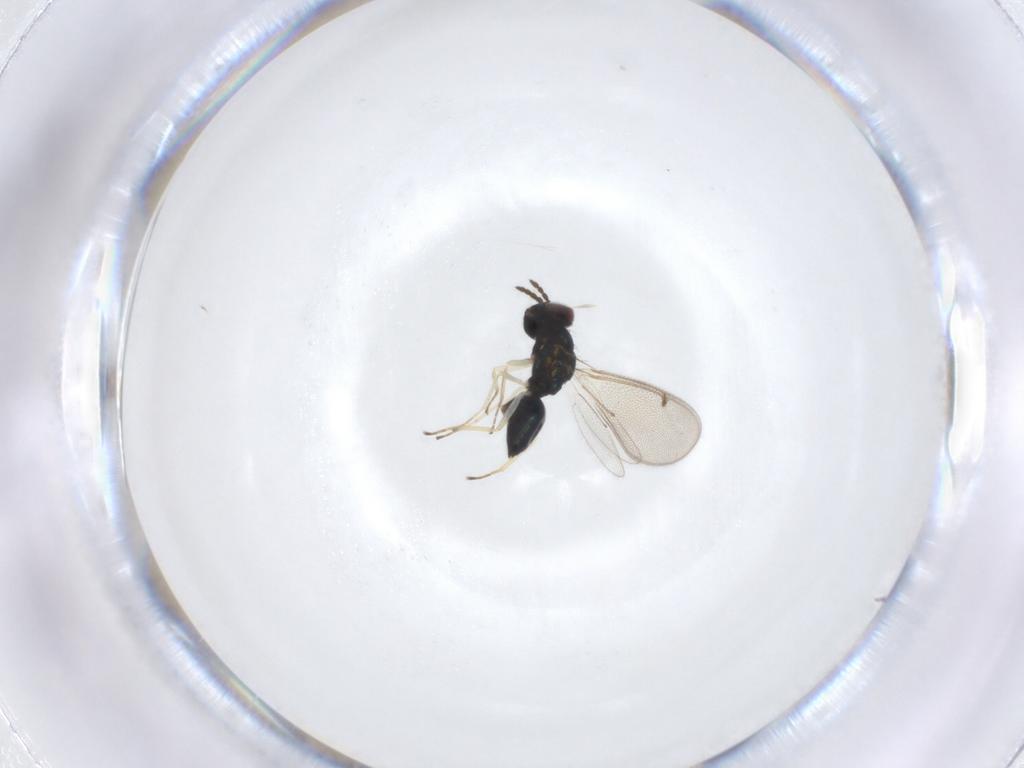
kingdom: Animalia
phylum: Arthropoda
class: Insecta
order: Hymenoptera
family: Eulophidae
